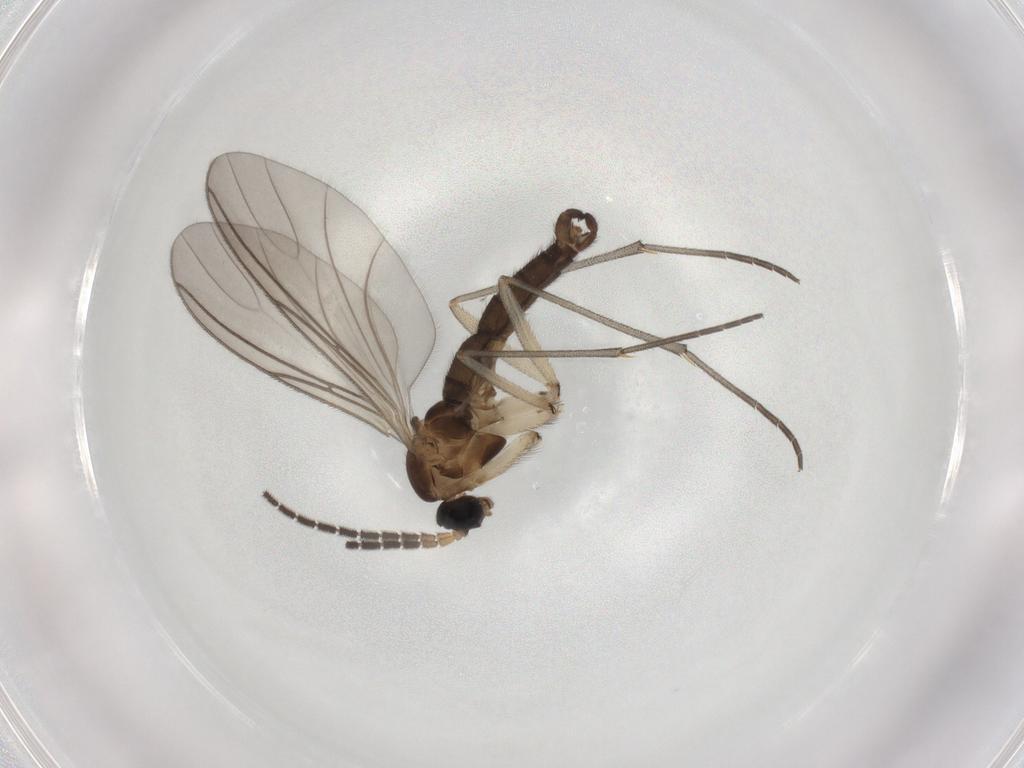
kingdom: Animalia
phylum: Arthropoda
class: Insecta
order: Diptera
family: Sciaridae
